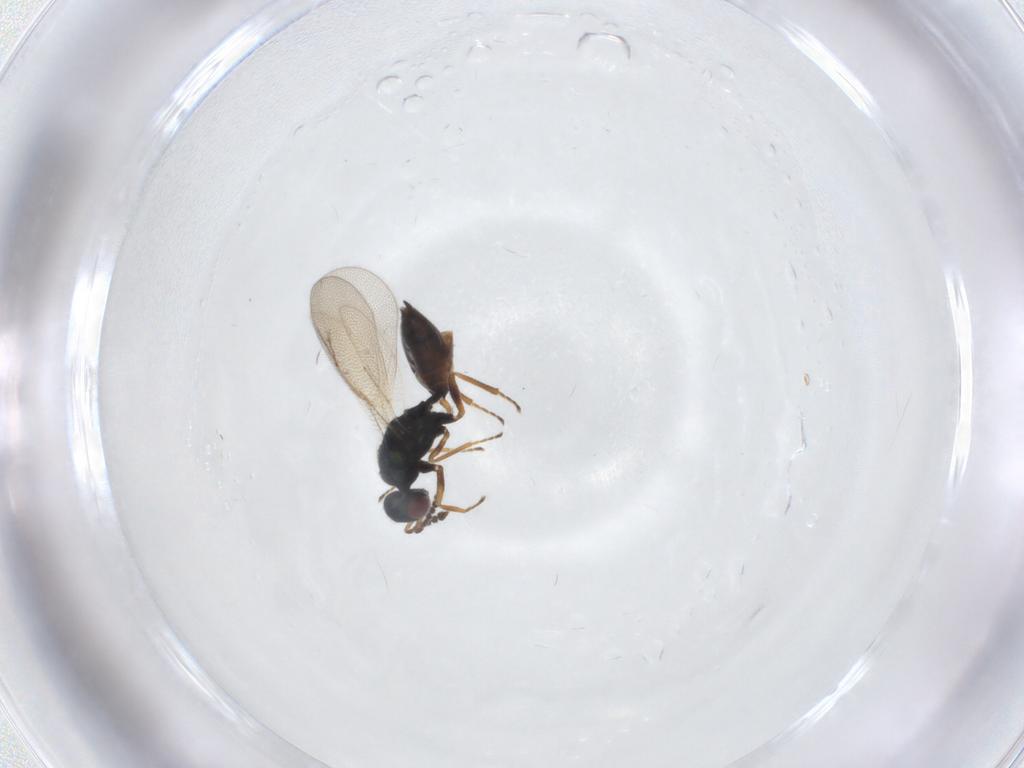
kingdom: Animalia
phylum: Arthropoda
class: Insecta
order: Hymenoptera
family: Eulophidae
